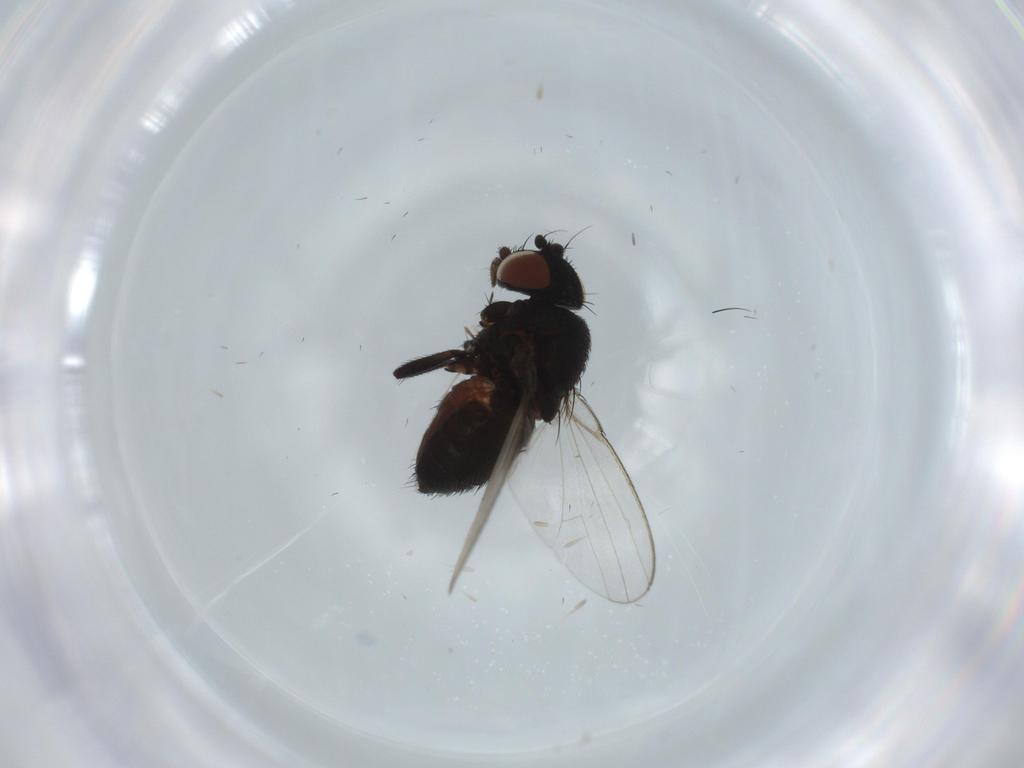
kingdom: Animalia
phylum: Arthropoda
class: Insecta
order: Diptera
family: Milichiidae
